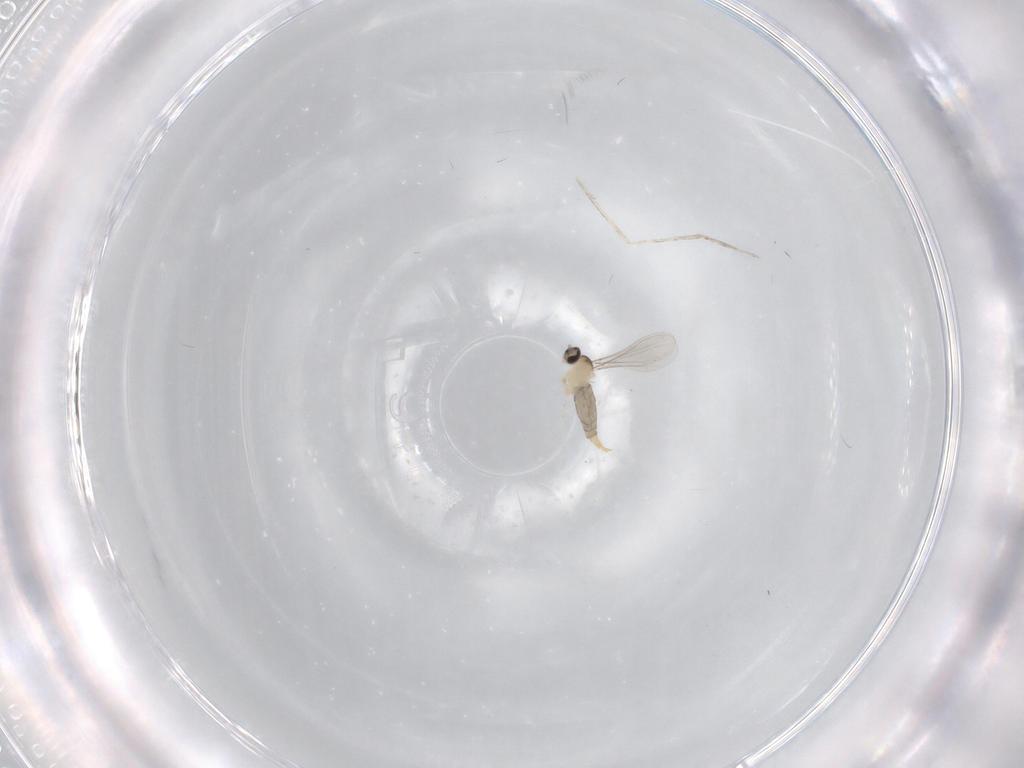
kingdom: Animalia
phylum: Arthropoda
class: Insecta
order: Diptera
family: Cecidomyiidae
